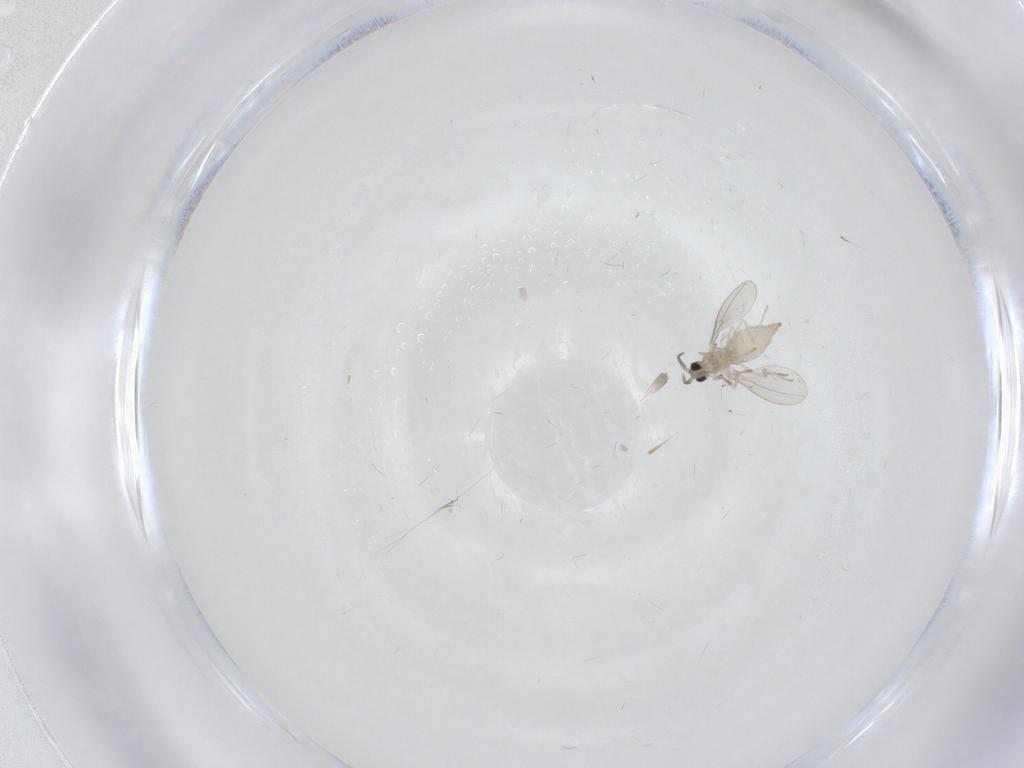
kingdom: Animalia
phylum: Arthropoda
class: Insecta
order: Diptera
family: Cecidomyiidae
